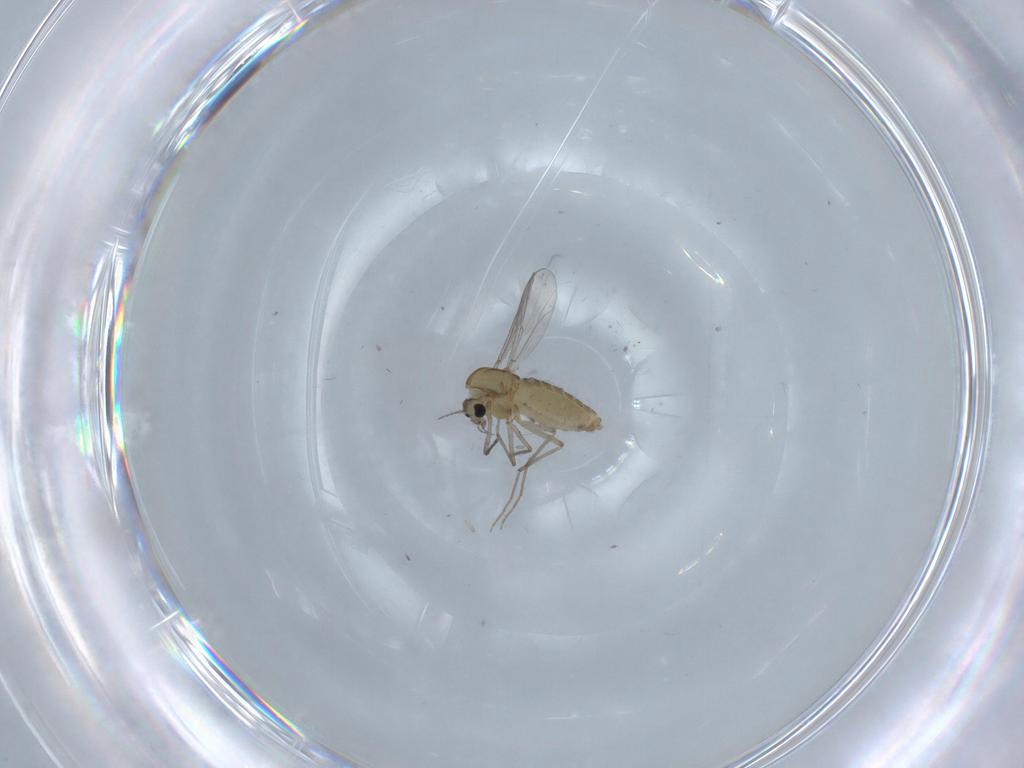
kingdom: Animalia
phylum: Arthropoda
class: Insecta
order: Diptera
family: Chironomidae
